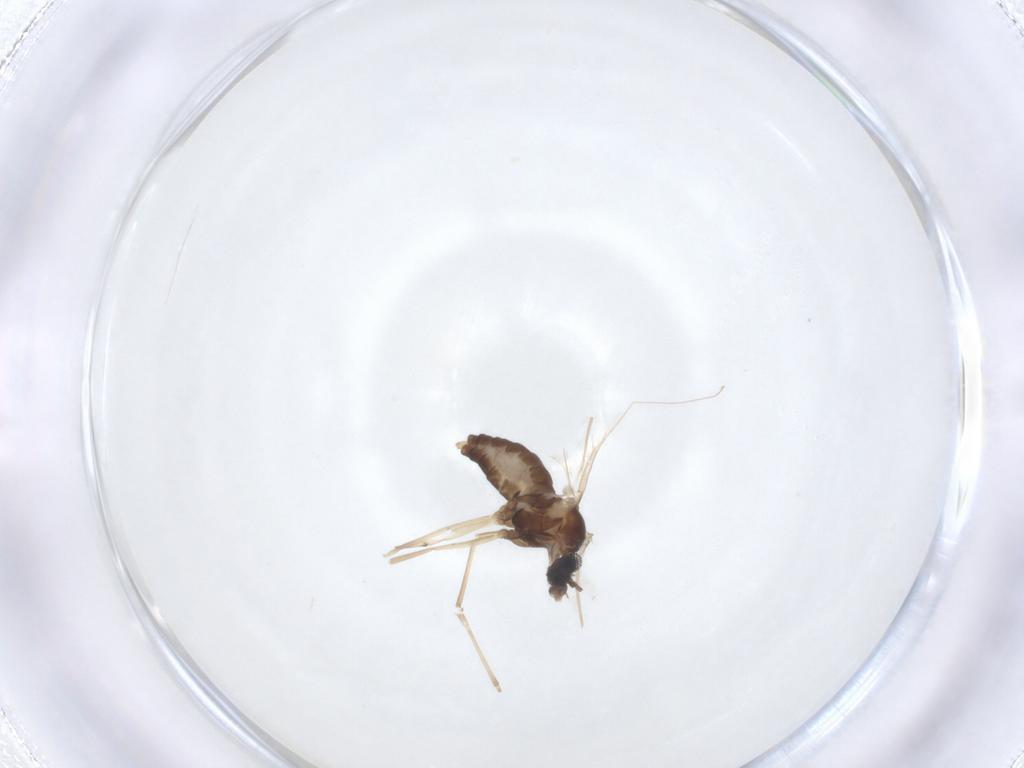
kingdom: Animalia
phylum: Arthropoda
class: Insecta
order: Diptera
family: Cecidomyiidae
